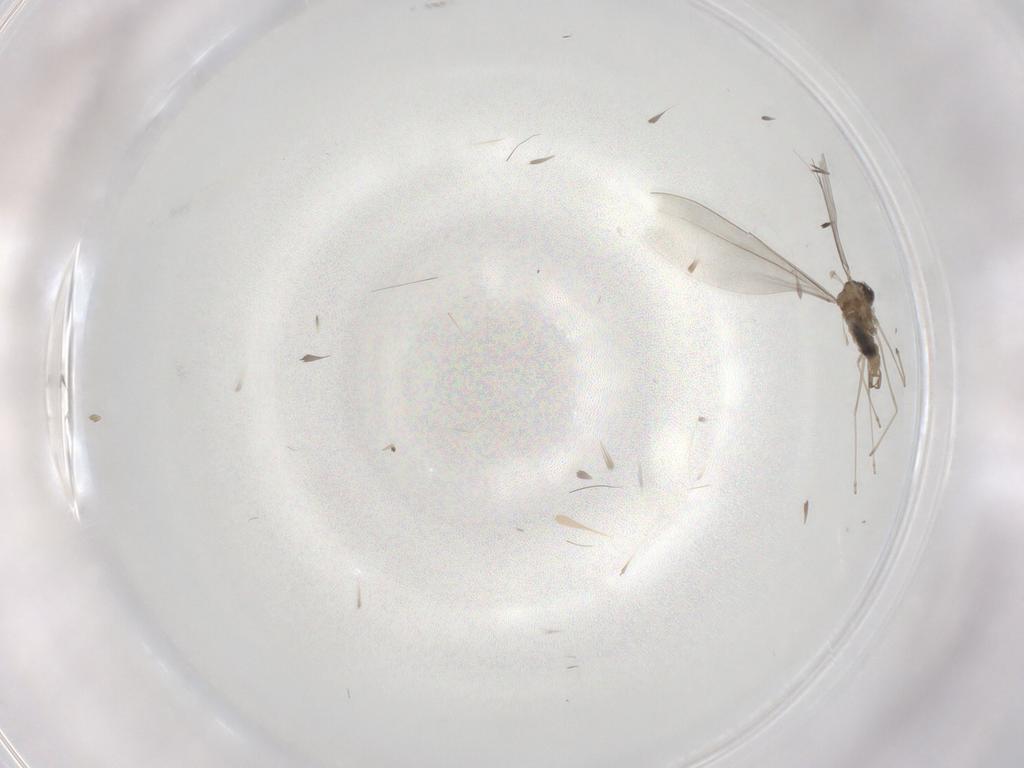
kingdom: Animalia
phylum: Arthropoda
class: Insecta
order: Diptera
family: Cecidomyiidae
